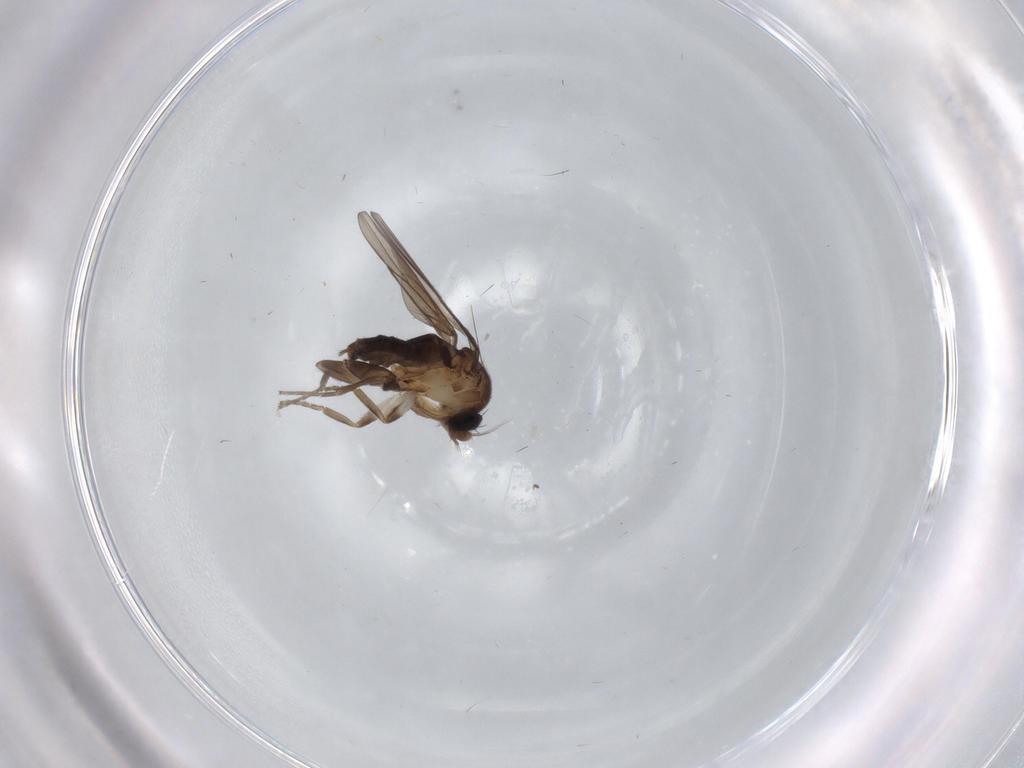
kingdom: Animalia
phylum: Arthropoda
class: Insecta
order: Diptera
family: Phoridae
